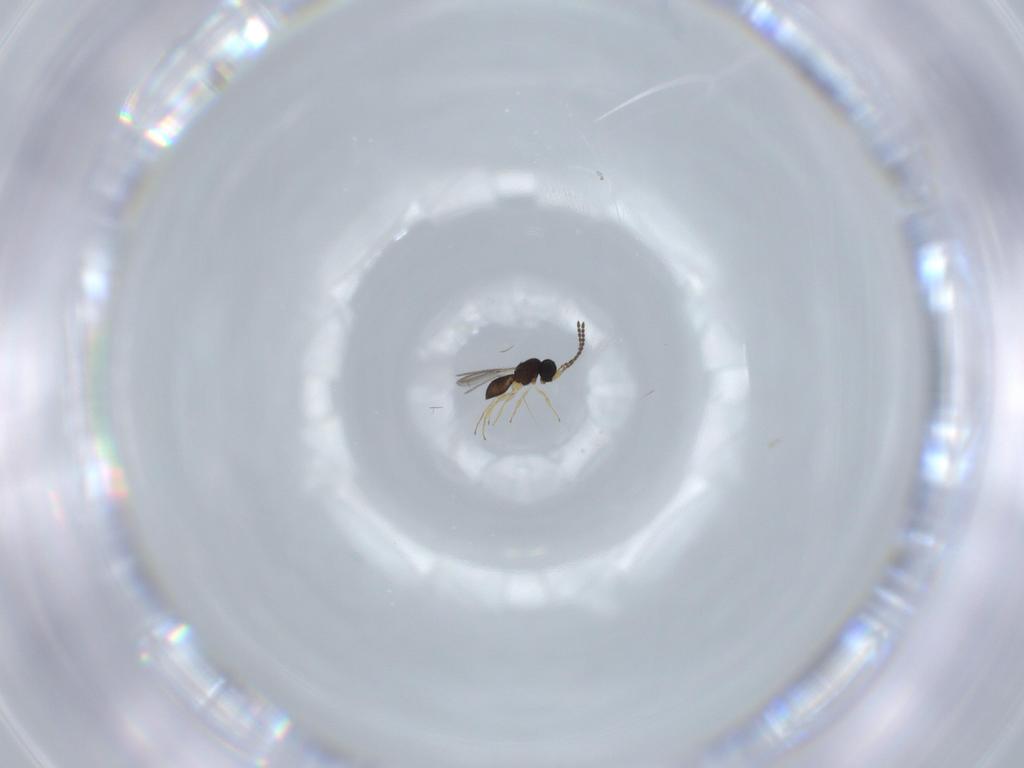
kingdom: Animalia
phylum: Arthropoda
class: Insecta
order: Hymenoptera
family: Scelionidae
